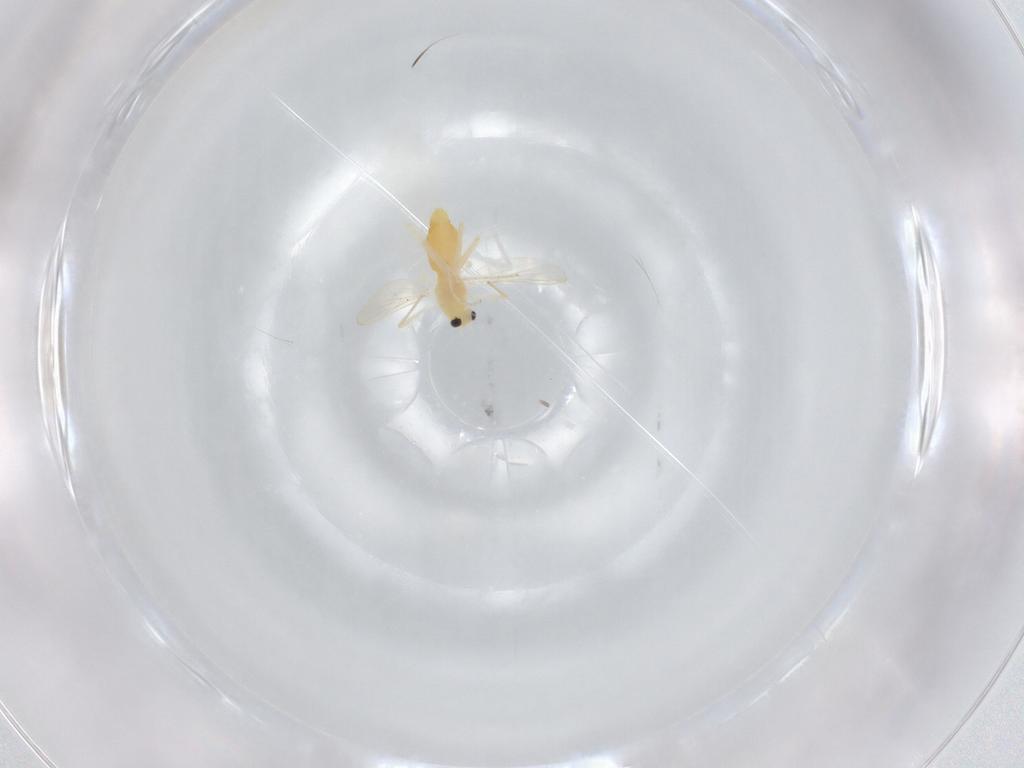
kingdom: Animalia
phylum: Arthropoda
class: Insecta
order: Diptera
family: Chironomidae
